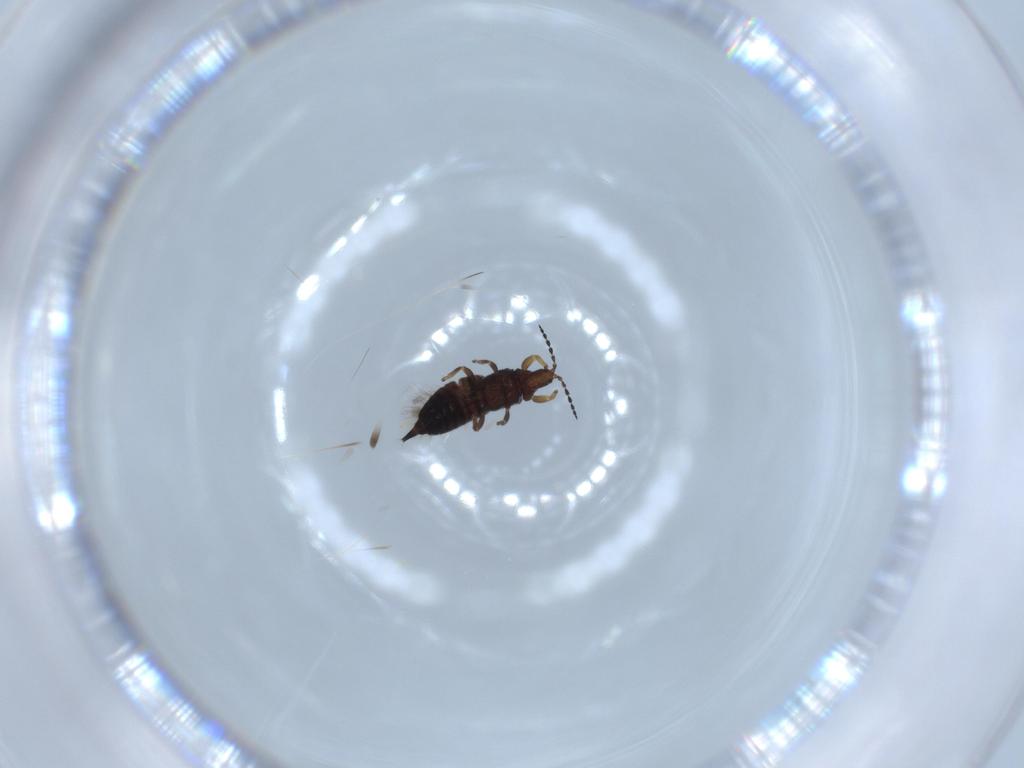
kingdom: Animalia
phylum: Arthropoda
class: Insecta
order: Thysanoptera
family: Phlaeothripidae
